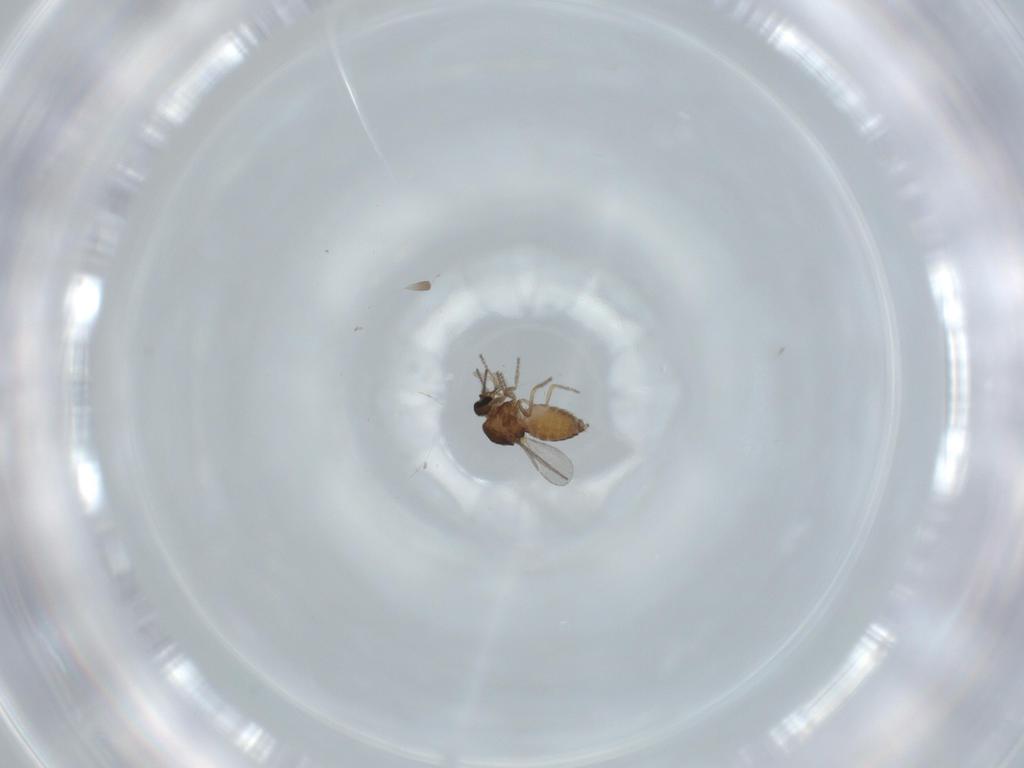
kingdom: Animalia
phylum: Arthropoda
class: Insecta
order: Diptera
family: Ceratopogonidae
